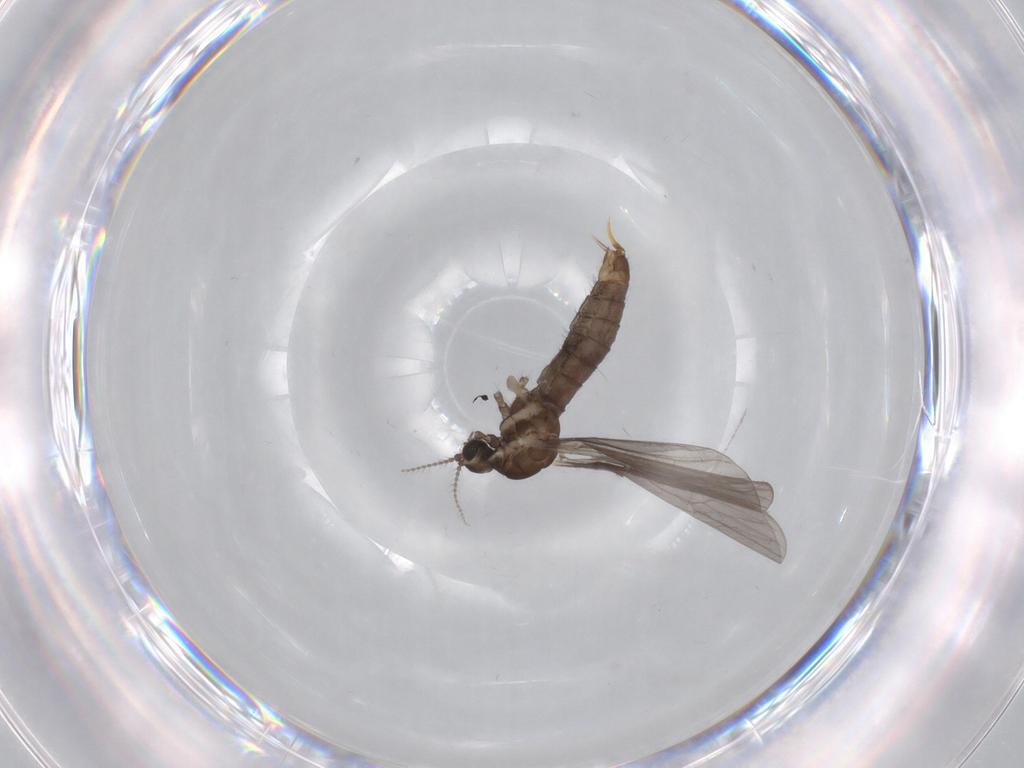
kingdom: Animalia
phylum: Arthropoda
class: Insecta
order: Diptera
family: Limoniidae
